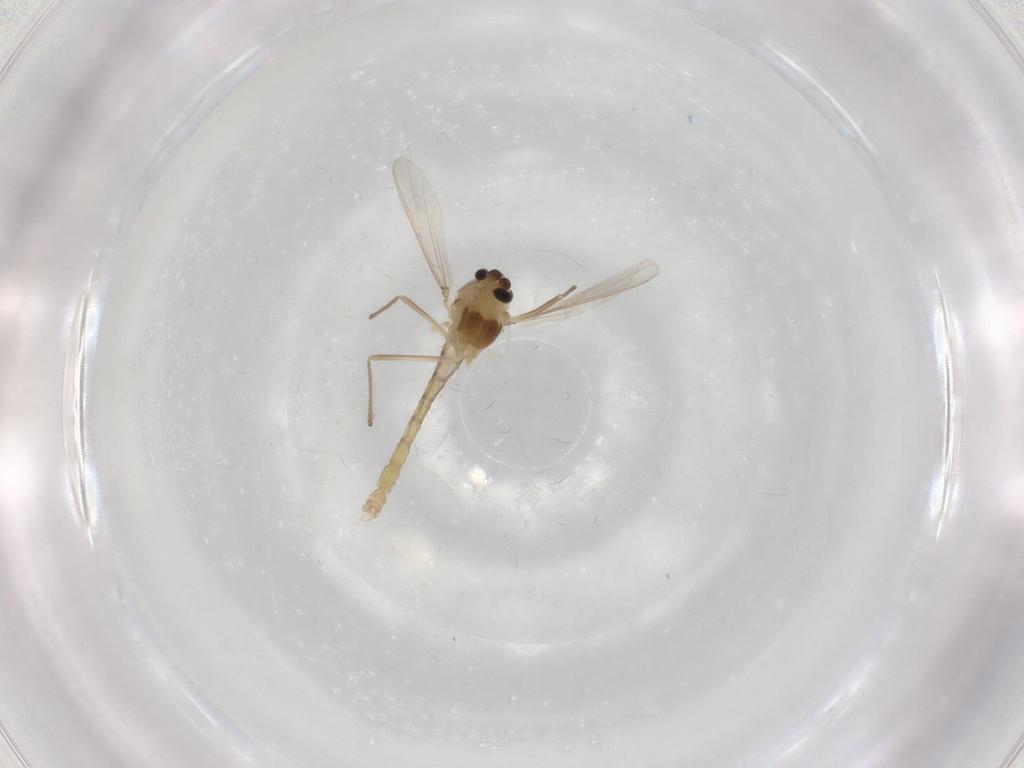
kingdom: Animalia
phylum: Arthropoda
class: Insecta
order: Diptera
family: Chironomidae
